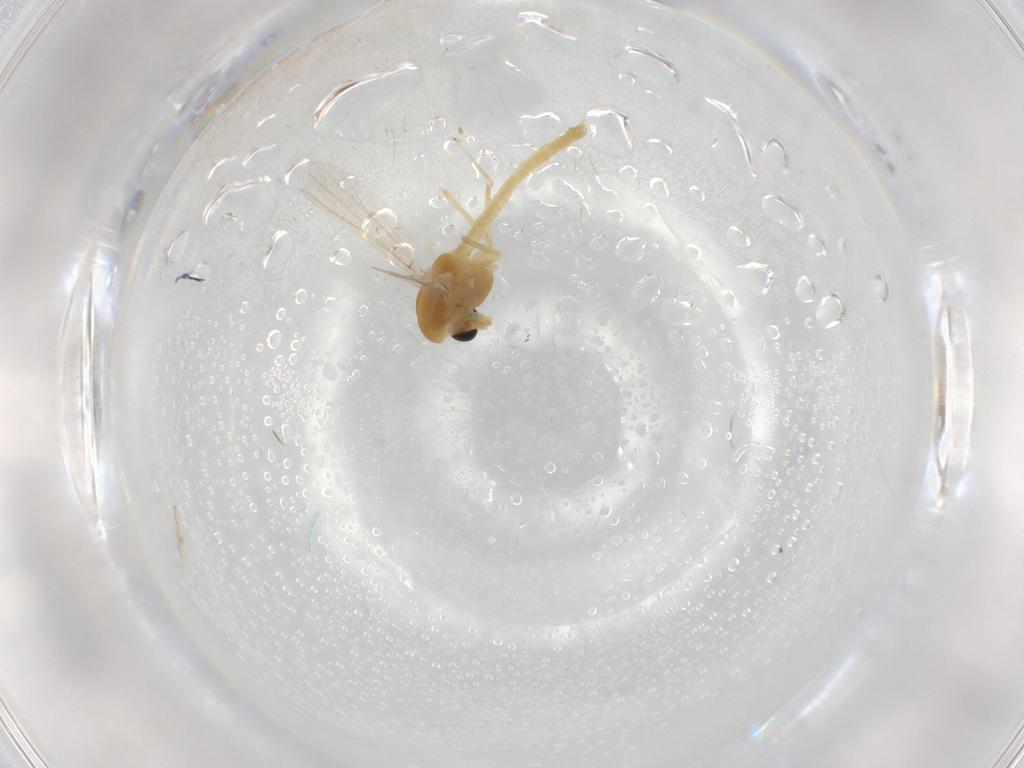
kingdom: Animalia
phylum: Arthropoda
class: Insecta
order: Diptera
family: Chironomidae
